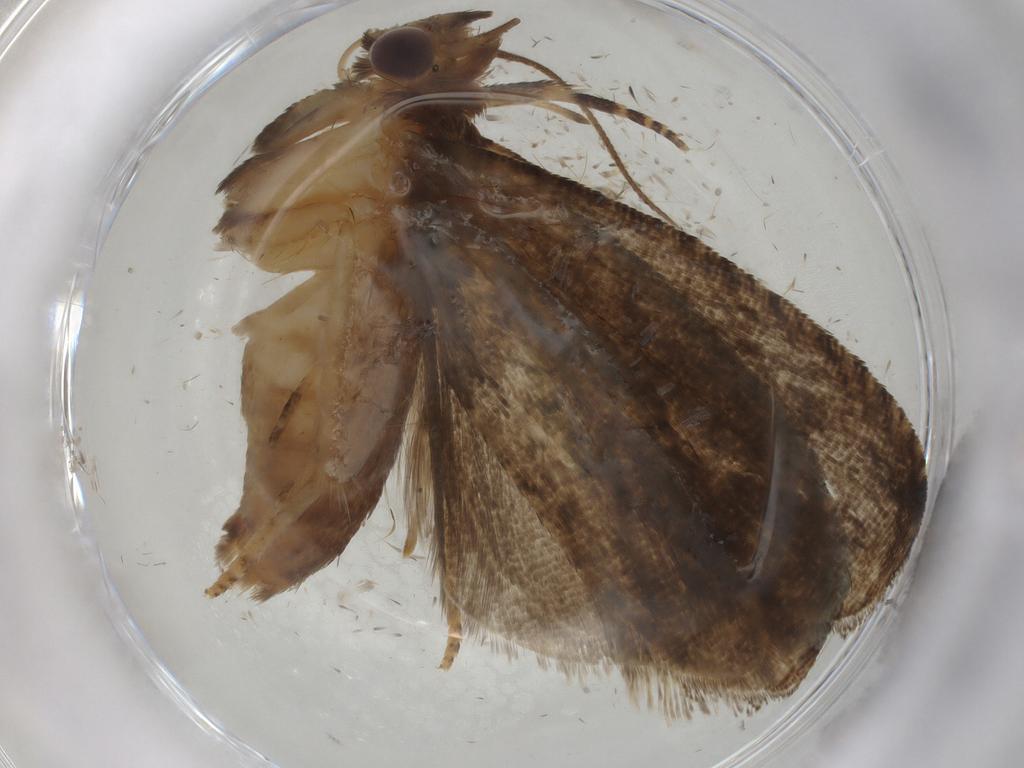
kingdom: Animalia
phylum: Arthropoda
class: Insecta
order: Lepidoptera
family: Tortricidae
